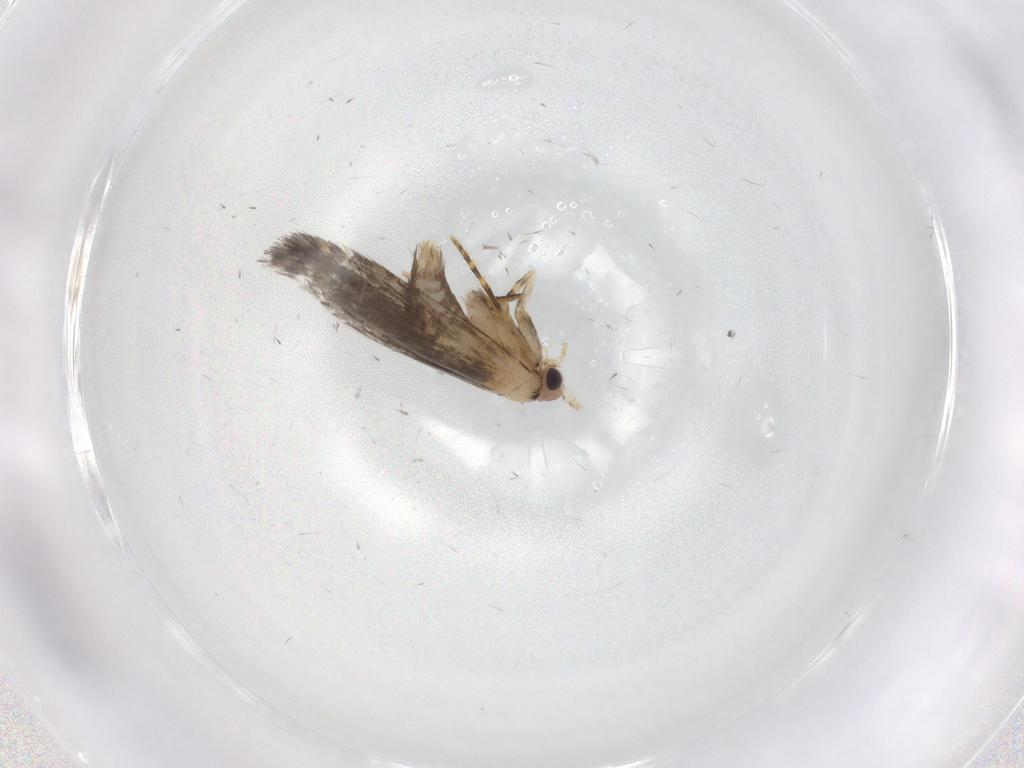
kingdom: Animalia
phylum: Arthropoda
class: Insecta
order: Lepidoptera
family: Tineidae
